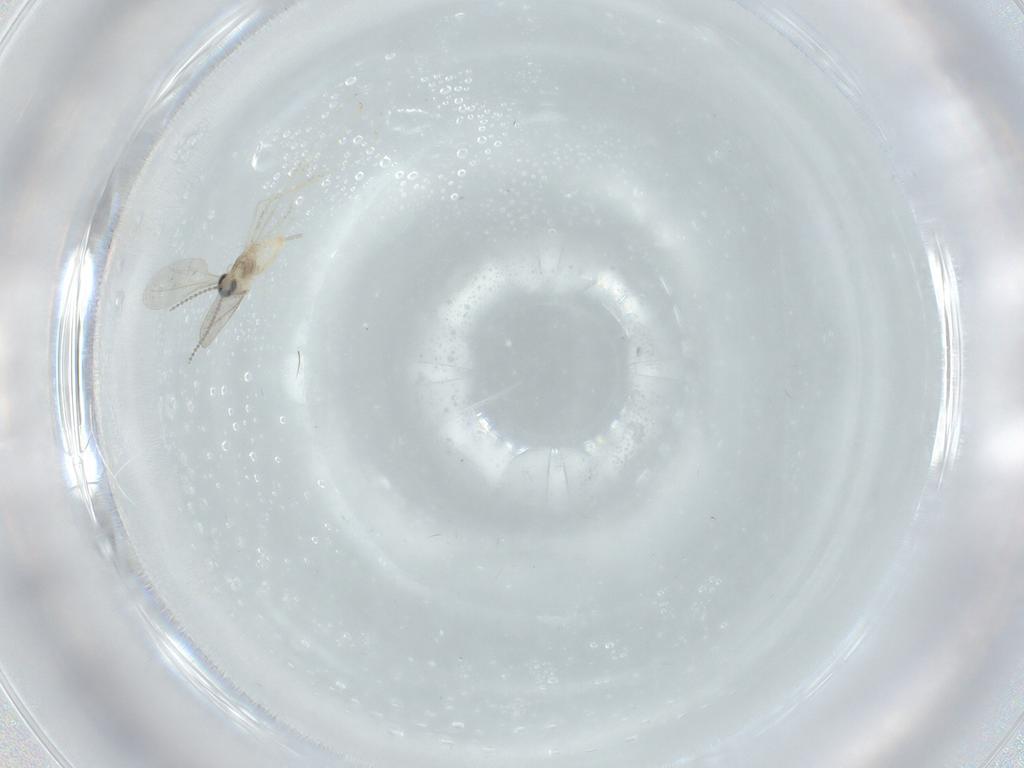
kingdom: Animalia
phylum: Arthropoda
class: Insecta
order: Diptera
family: Cecidomyiidae
